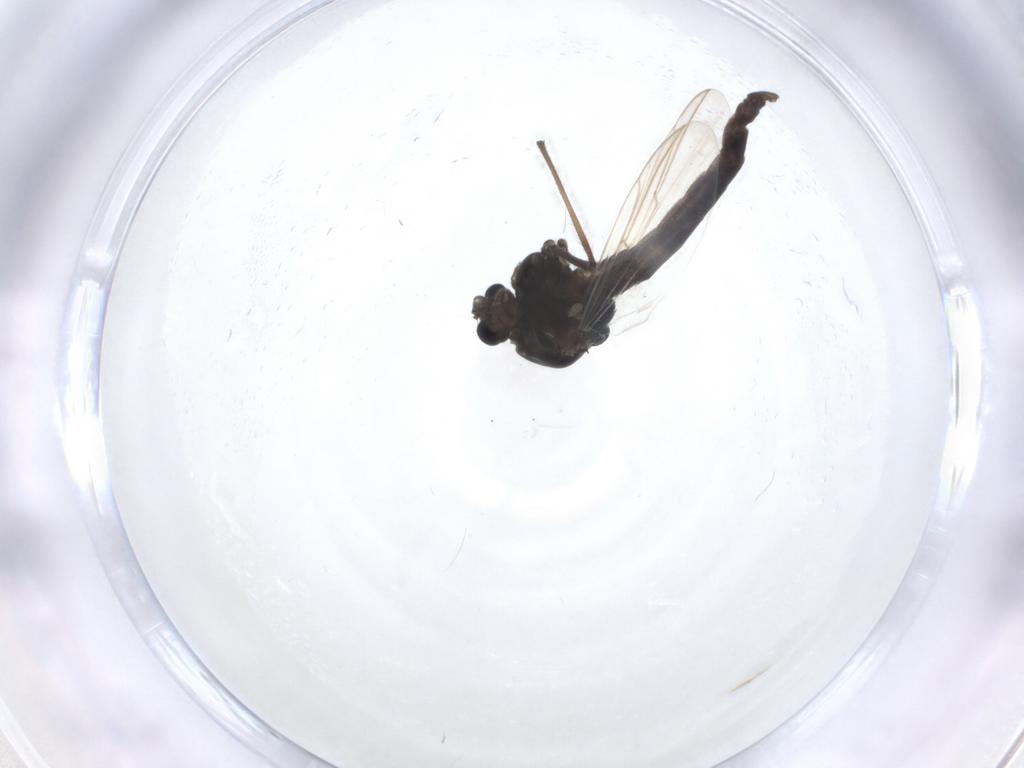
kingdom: Animalia
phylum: Arthropoda
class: Insecta
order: Diptera
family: Chironomidae
